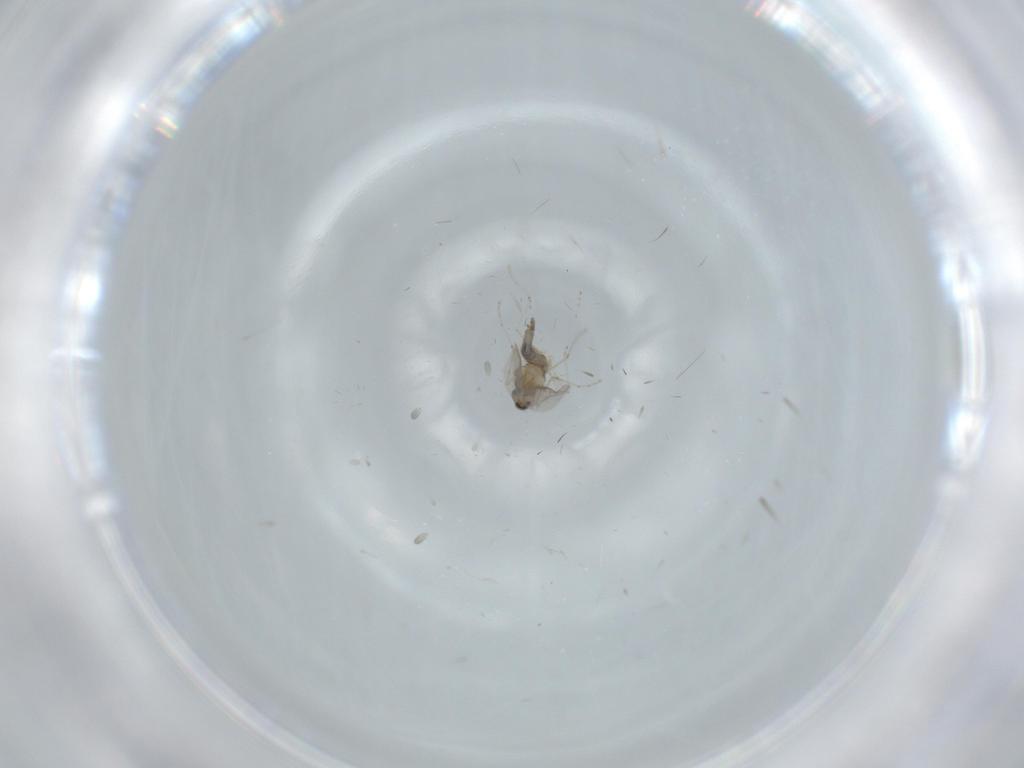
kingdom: Animalia
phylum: Arthropoda
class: Insecta
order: Diptera
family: Cecidomyiidae
